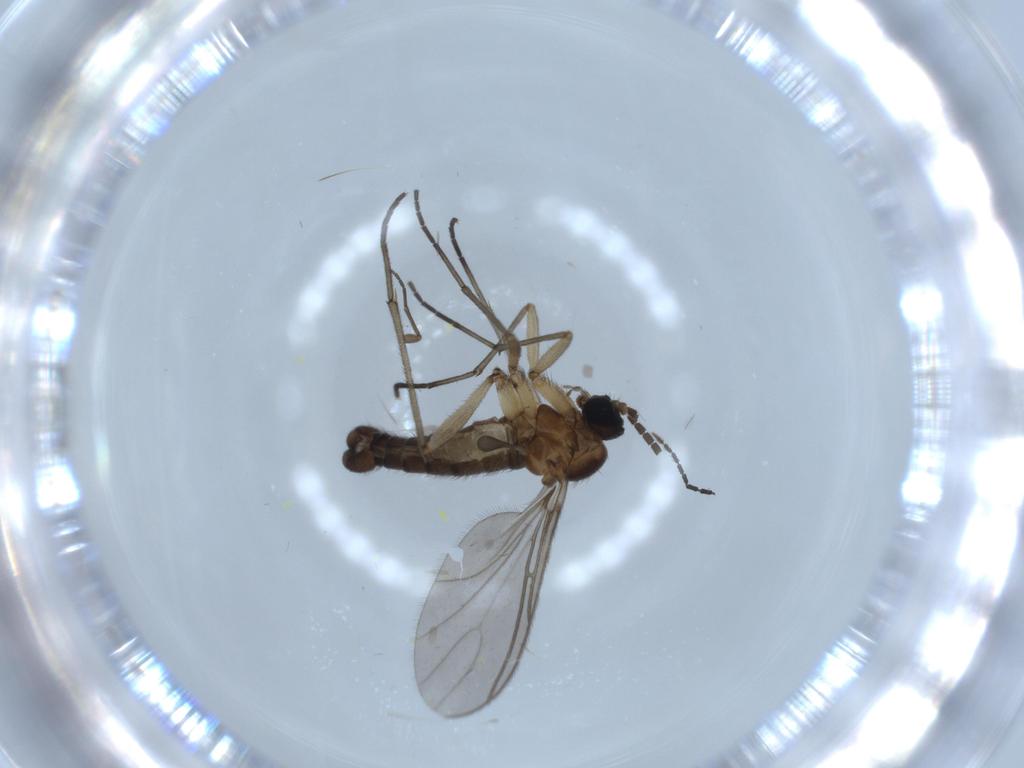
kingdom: Animalia
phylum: Arthropoda
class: Insecta
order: Diptera
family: Sciaridae
